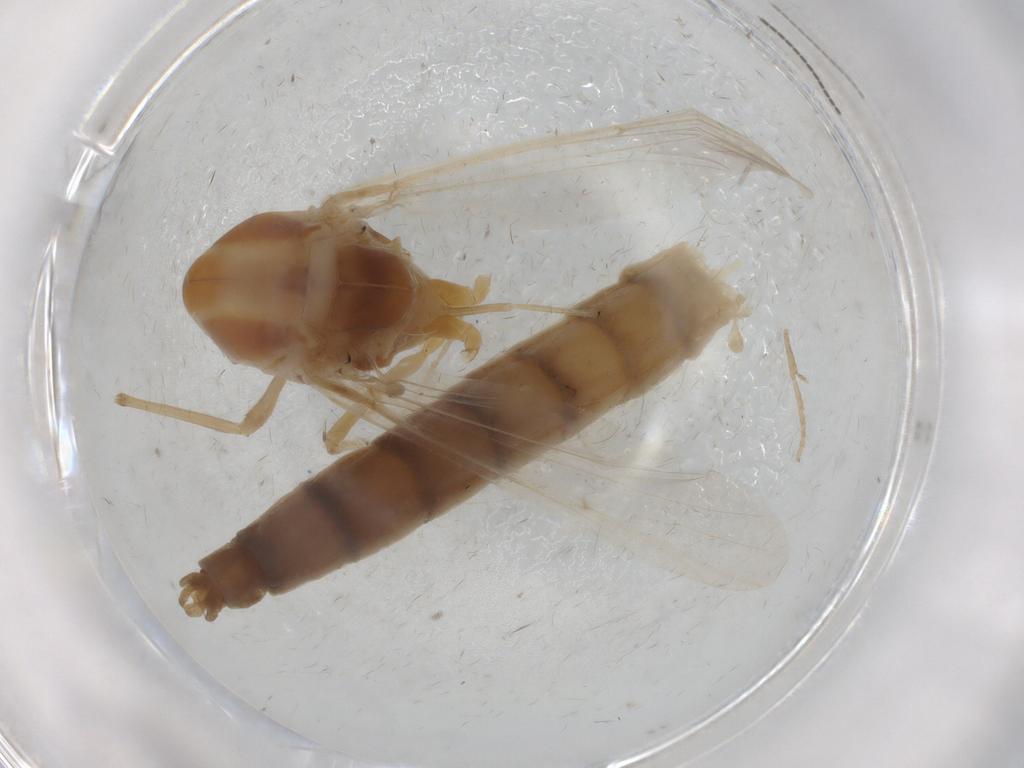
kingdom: Animalia
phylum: Arthropoda
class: Insecta
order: Diptera
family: Chironomidae
